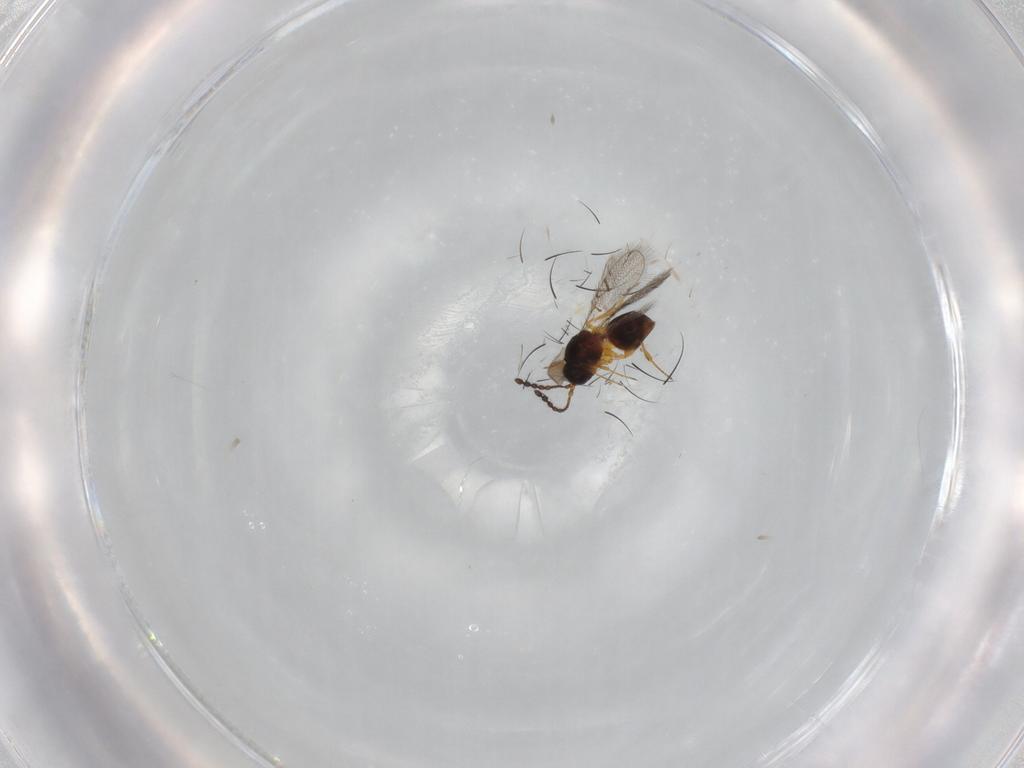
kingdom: Animalia
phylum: Arthropoda
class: Insecta
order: Hymenoptera
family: Figitidae
